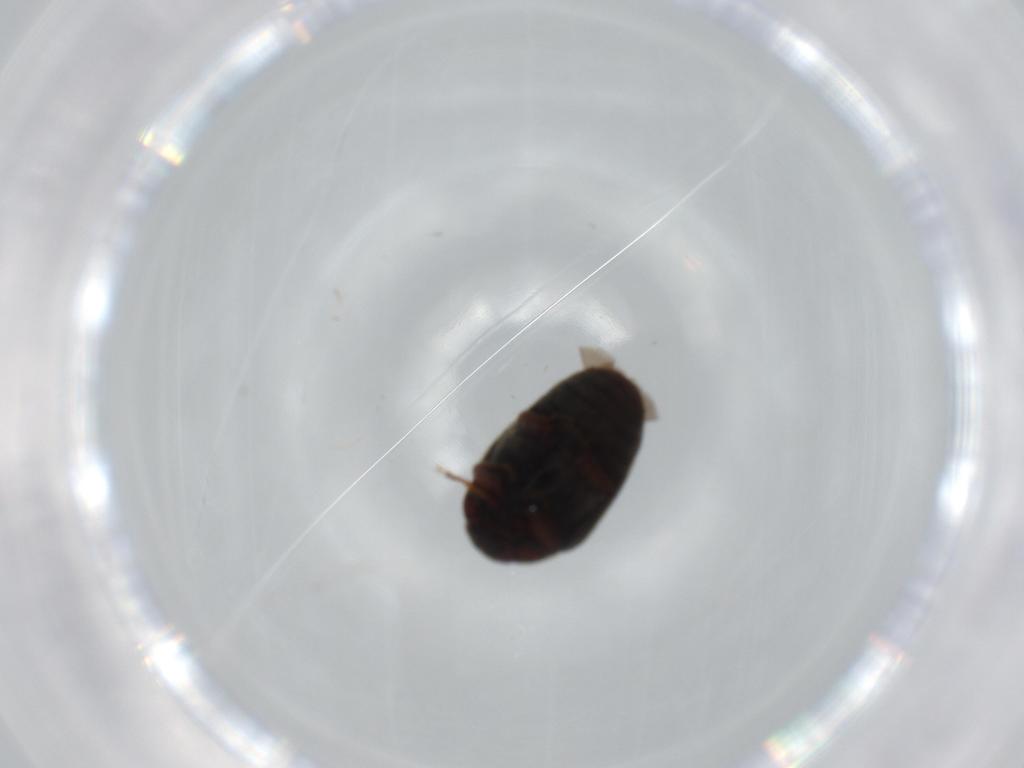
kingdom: Animalia
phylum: Arthropoda
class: Insecta
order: Coleoptera
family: Dermestidae
